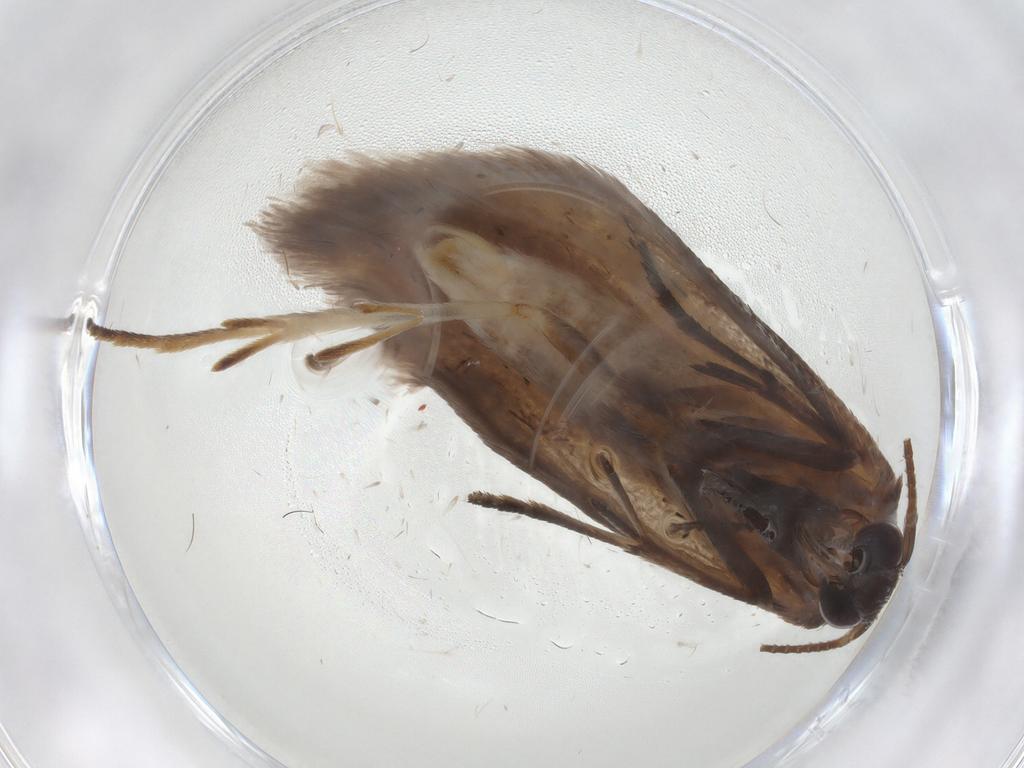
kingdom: Animalia
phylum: Arthropoda
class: Insecta
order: Lepidoptera
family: Roeslerstammiidae
